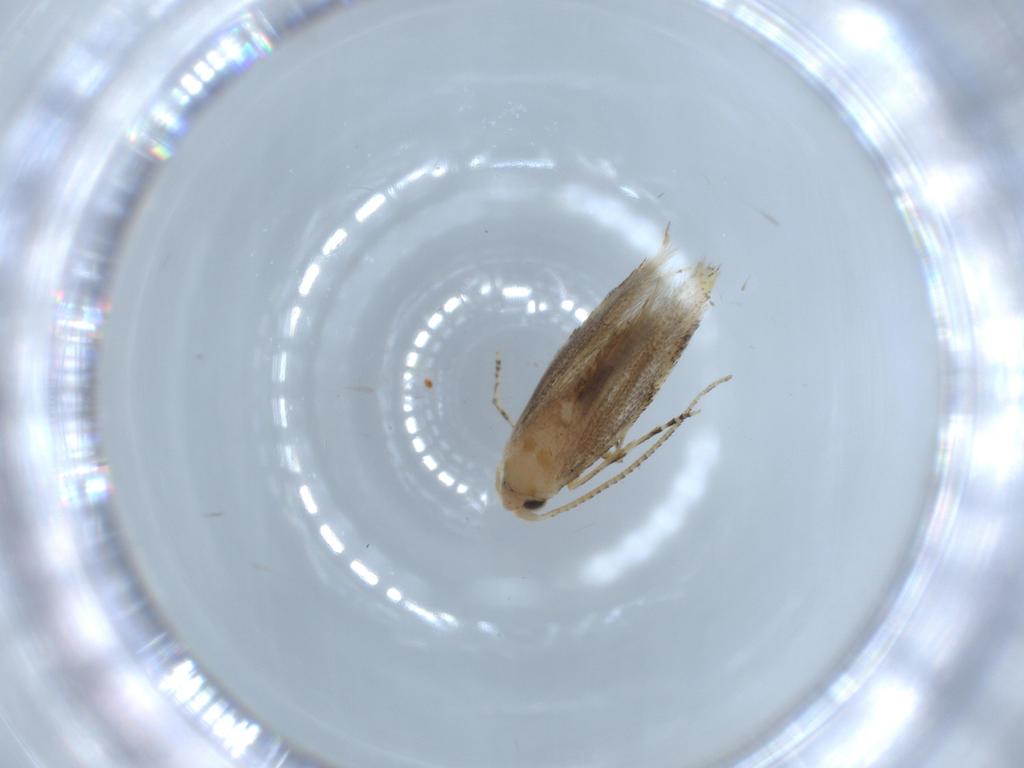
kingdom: Animalia
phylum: Arthropoda
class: Insecta
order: Lepidoptera
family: Bucculatricidae
